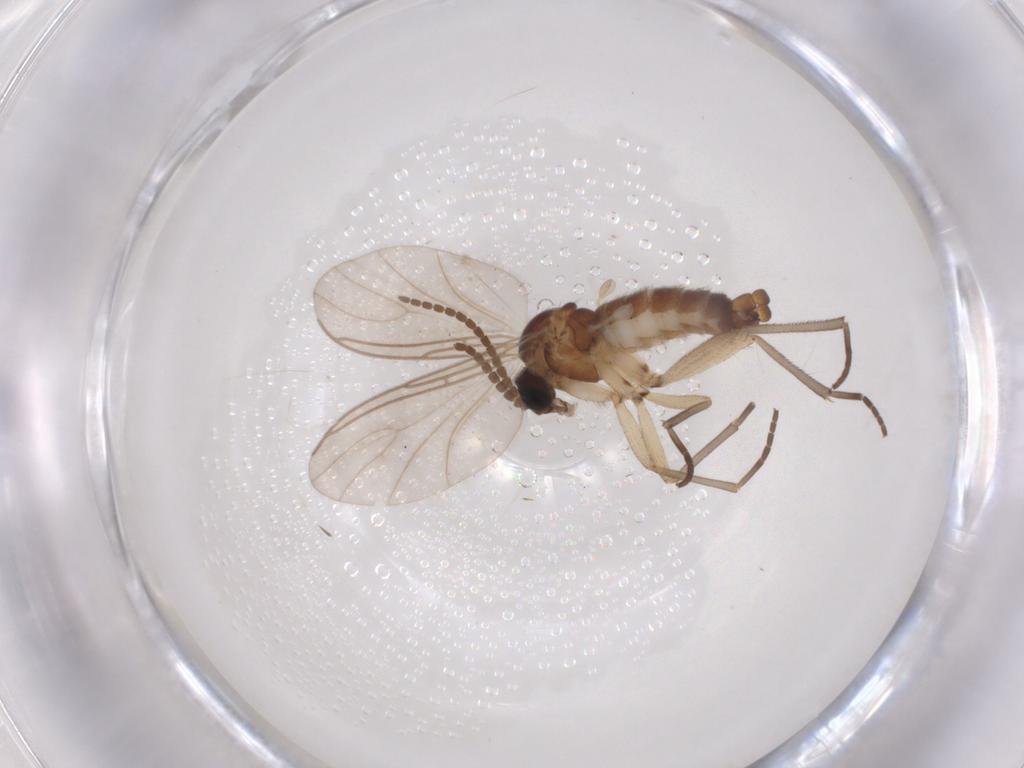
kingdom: Animalia
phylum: Arthropoda
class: Insecta
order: Diptera
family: Sciaridae
